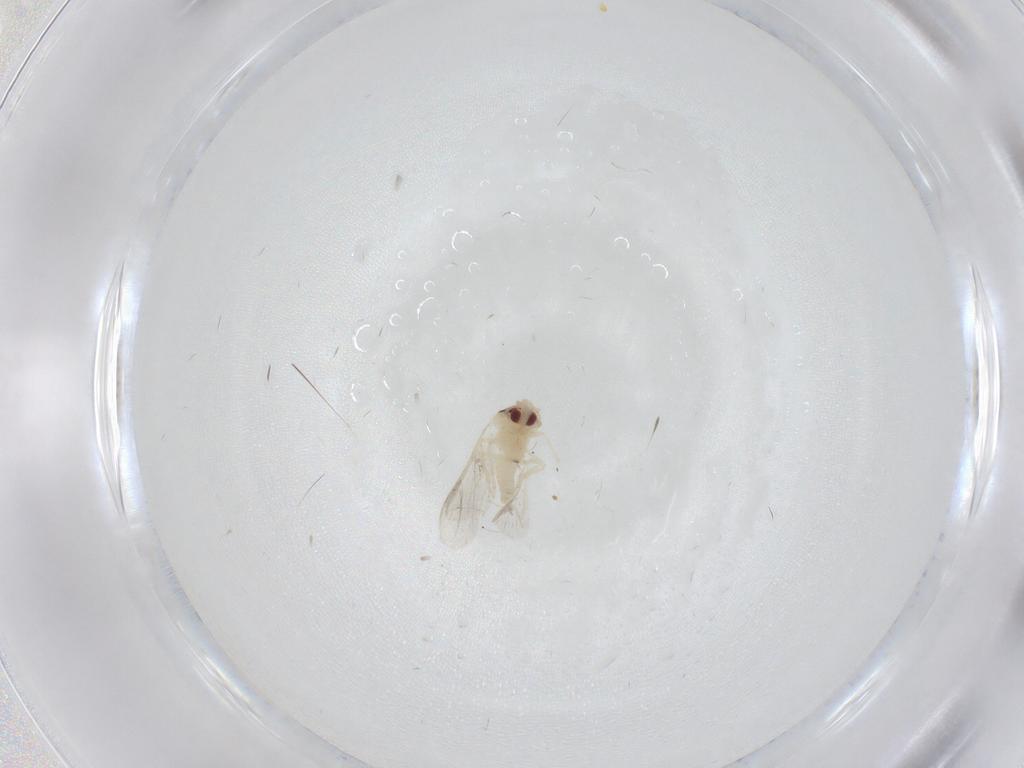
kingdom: Animalia
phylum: Arthropoda
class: Insecta
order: Hemiptera
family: Aleyrodidae
